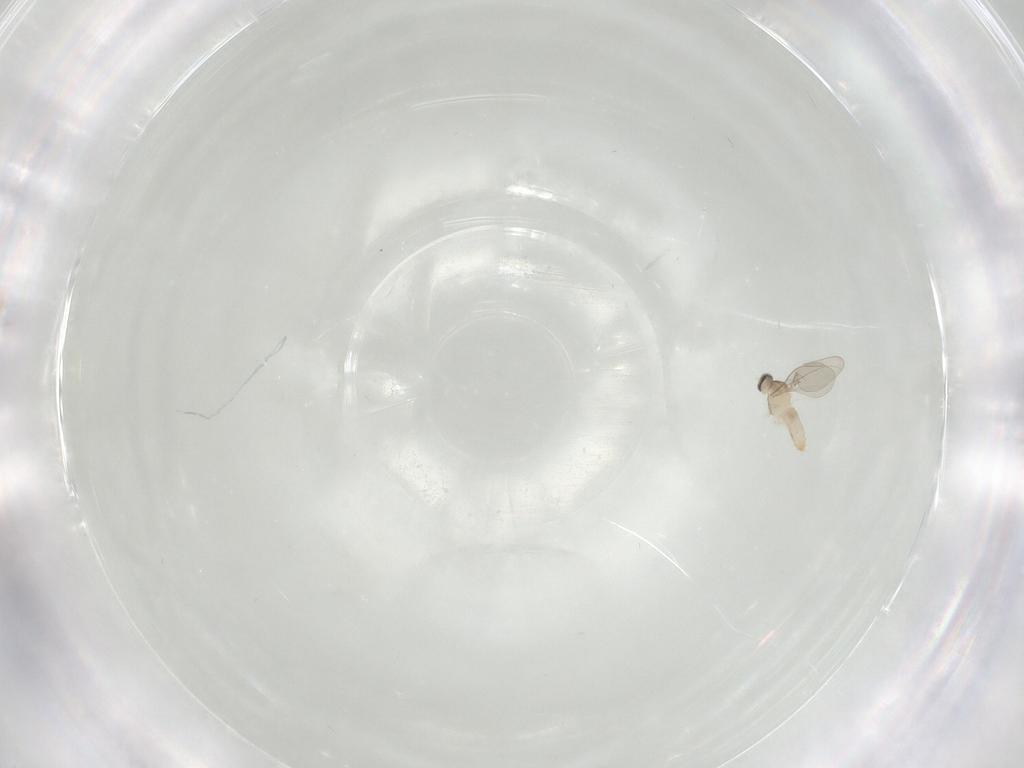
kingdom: Animalia
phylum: Arthropoda
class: Insecta
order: Diptera
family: Cecidomyiidae
